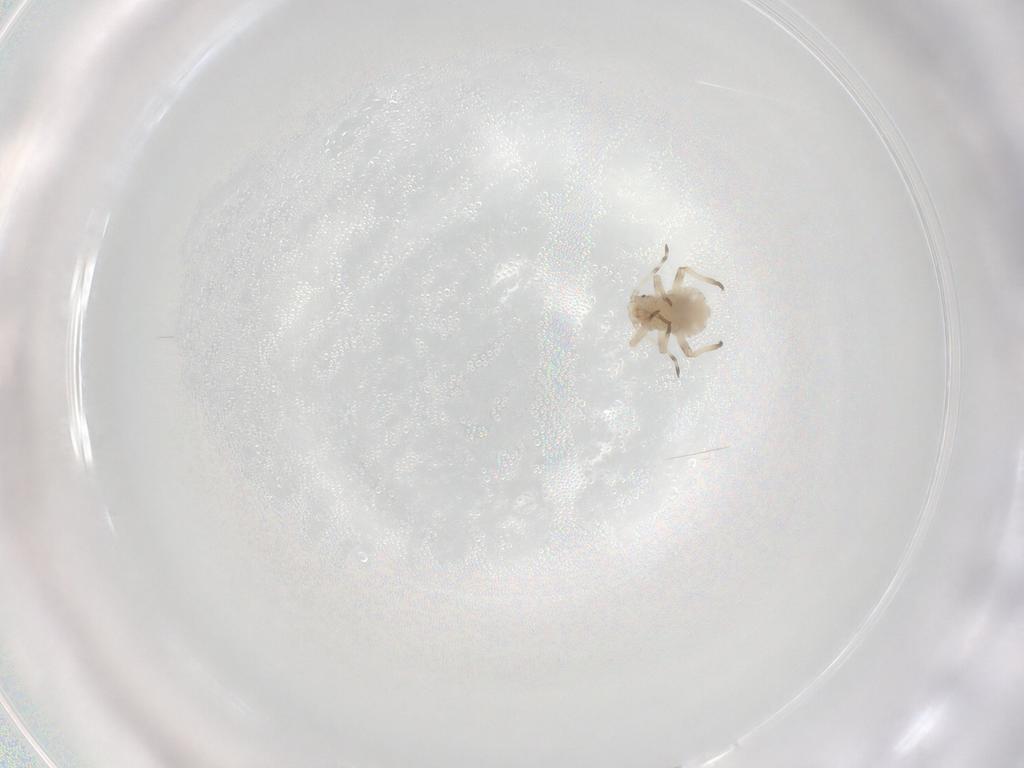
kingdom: Animalia
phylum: Arthropoda
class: Insecta
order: Hemiptera
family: Aphididae
